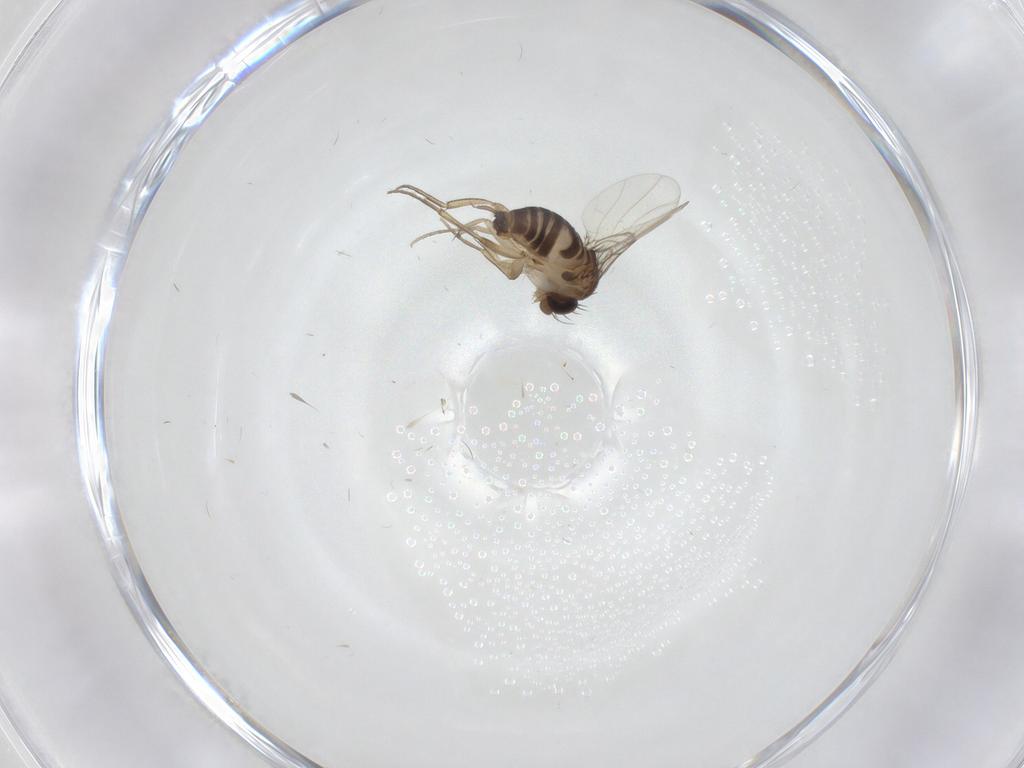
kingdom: Animalia
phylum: Arthropoda
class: Insecta
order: Diptera
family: Limoniidae
